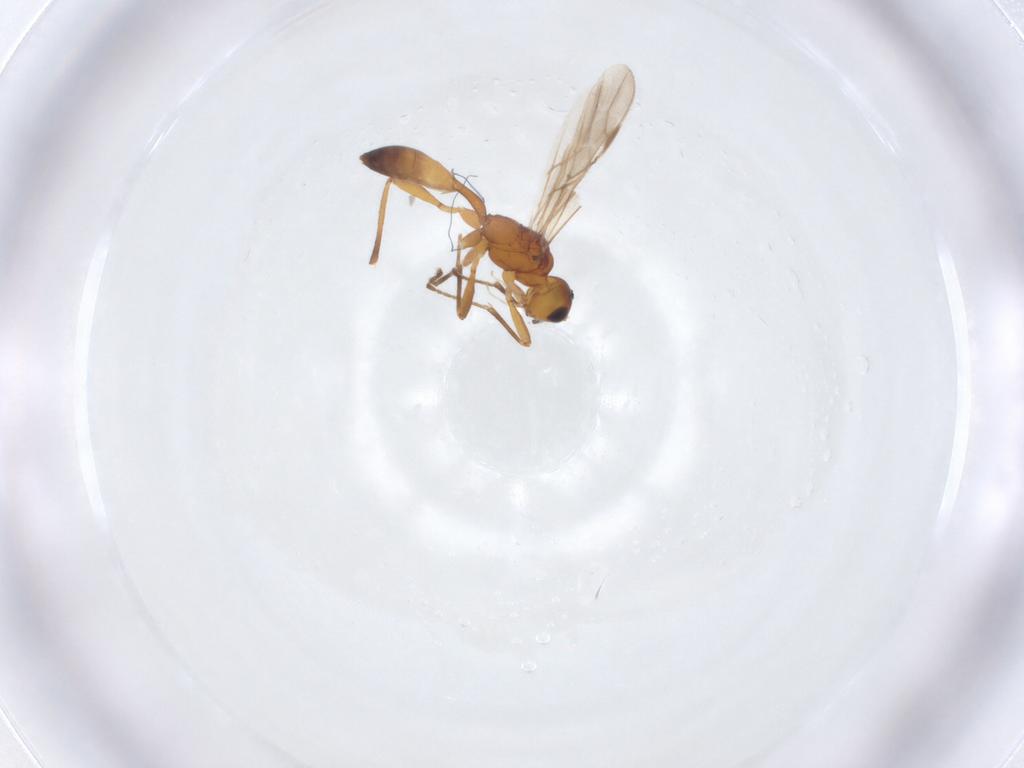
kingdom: Animalia
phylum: Arthropoda
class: Insecta
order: Hymenoptera
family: Braconidae
